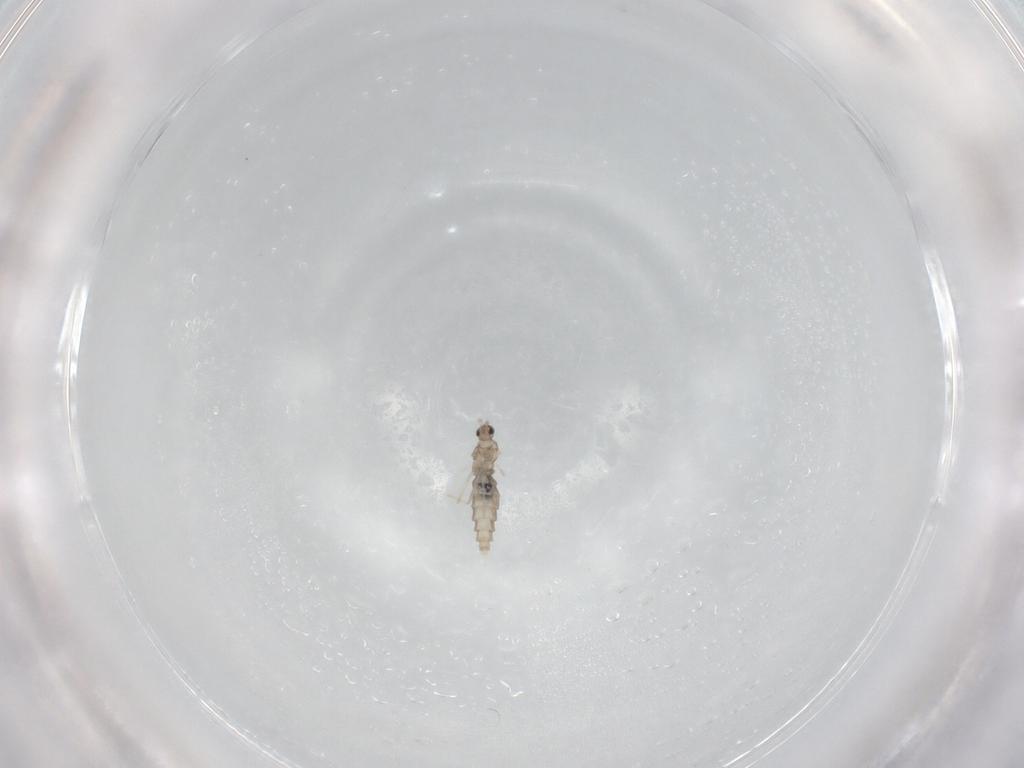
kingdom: Animalia
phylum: Arthropoda
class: Insecta
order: Diptera
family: Cecidomyiidae
